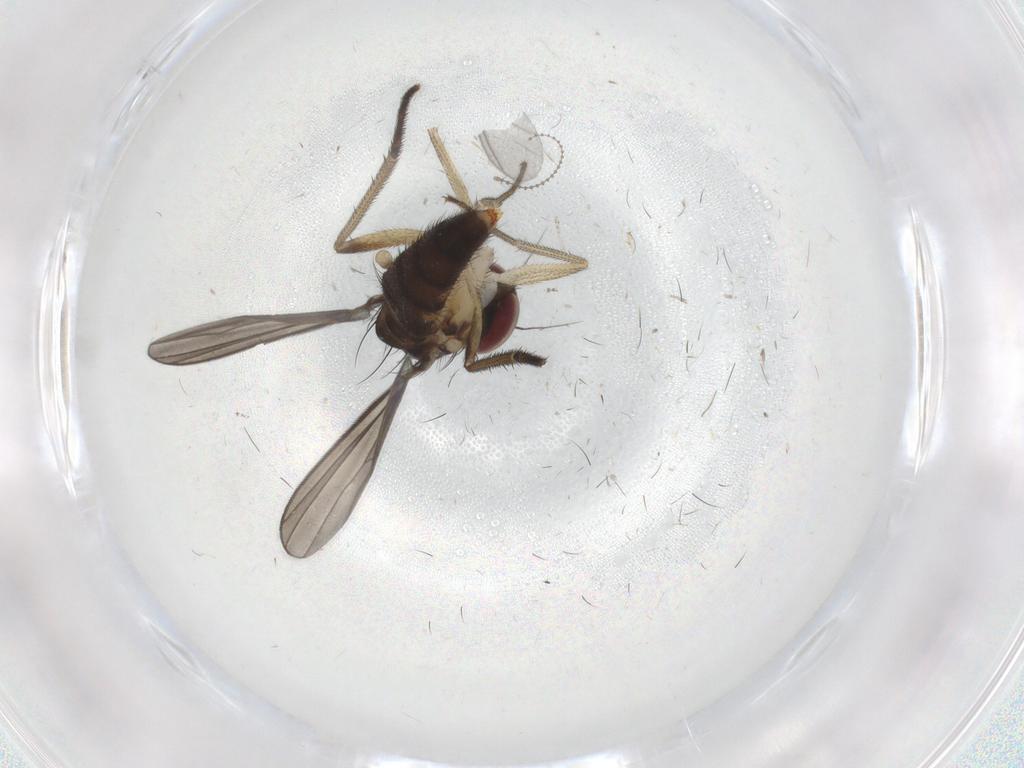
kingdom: Animalia
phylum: Arthropoda
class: Insecta
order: Diptera
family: Dolichopodidae
